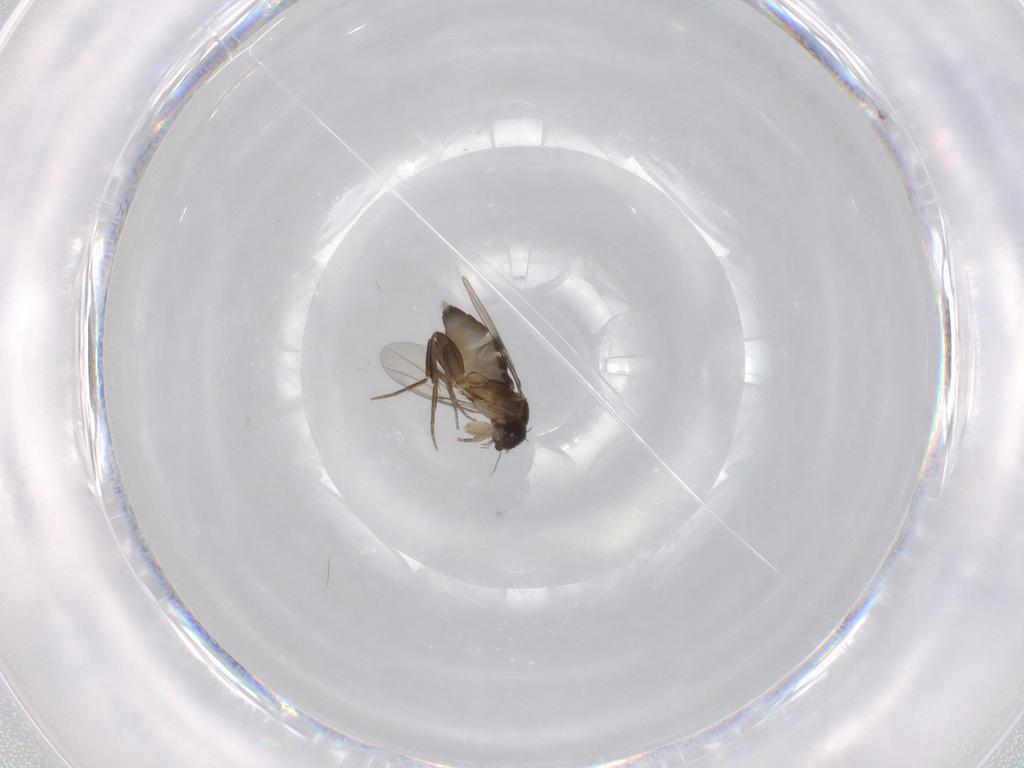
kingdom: Animalia
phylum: Arthropoda
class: Insecta
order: Diptera
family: Phoridae
